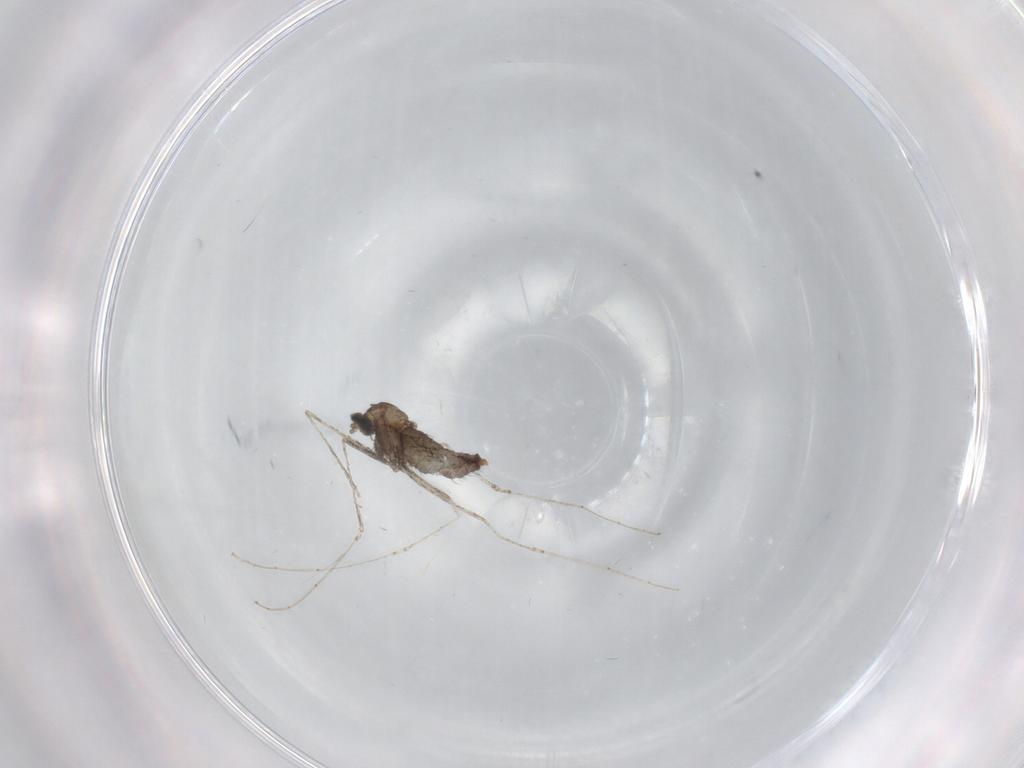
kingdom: Animalia
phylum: Arthropoda
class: Insecta
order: Diptera
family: Cecidomyiidae
